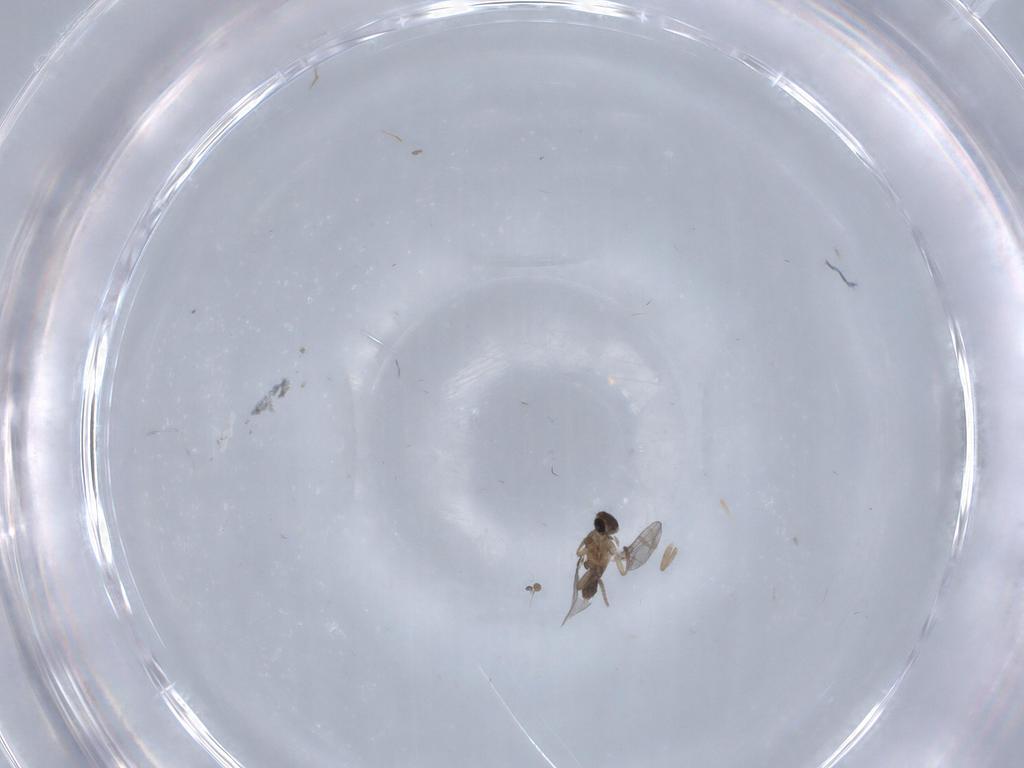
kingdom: Animalia
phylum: Arthropoda
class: Insecta
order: Diptera
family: Phoridae
